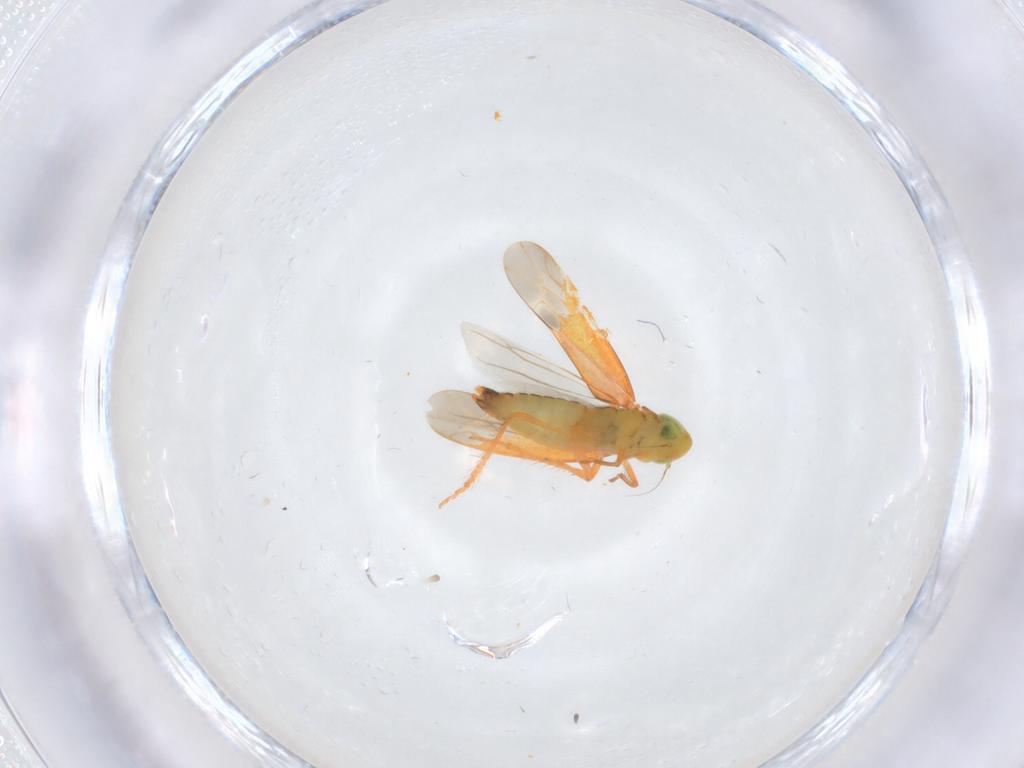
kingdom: Animalia
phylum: Arthropoda
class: Insecta
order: Hemiptera
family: Cicadellidae
